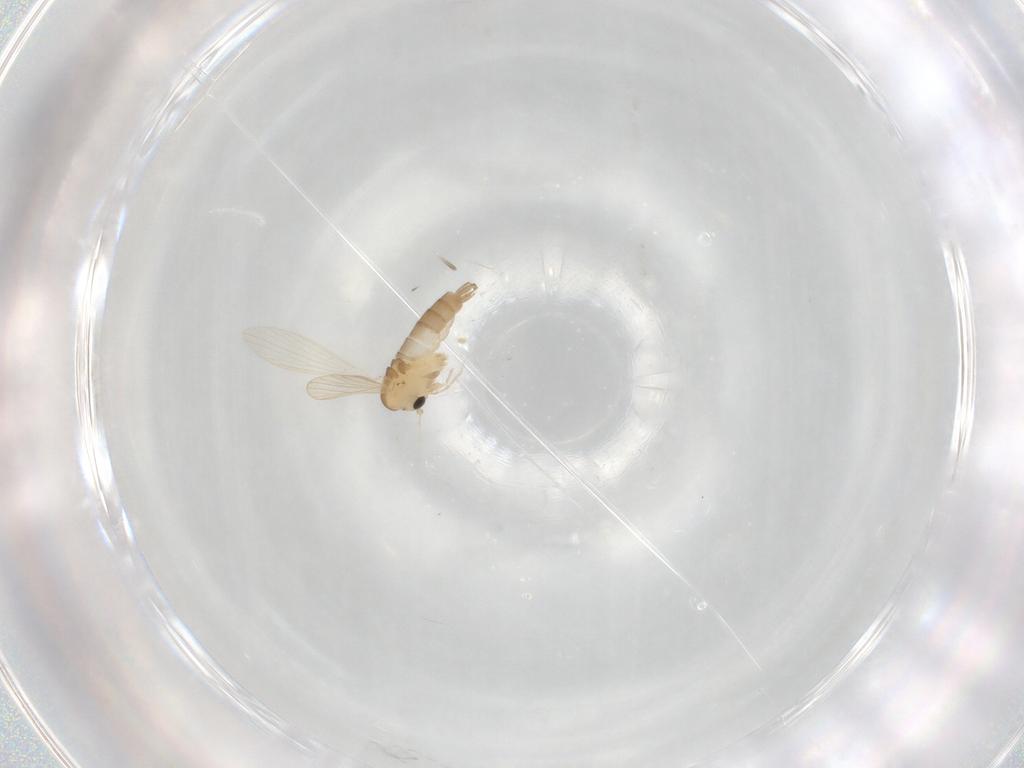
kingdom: Animalia
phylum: Arthropoda
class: Insecta
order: Diptera
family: Psychodidae
